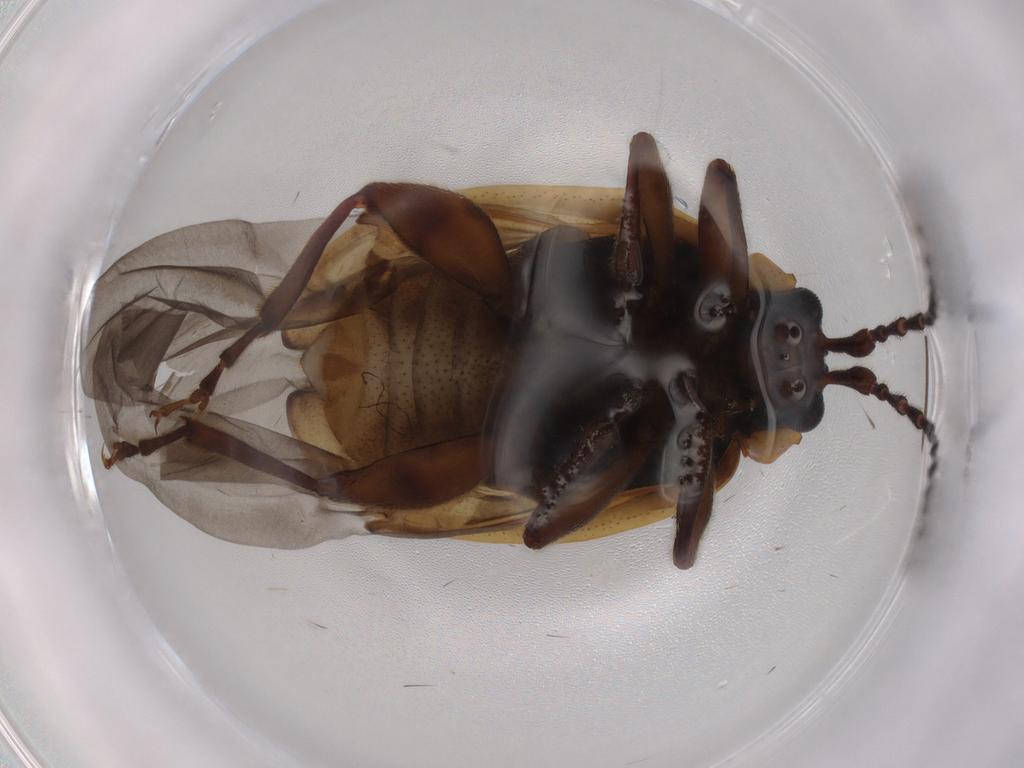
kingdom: Animalia
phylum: Arthropoda
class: Insecta
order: Coleoptera
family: Chrysomelidae
